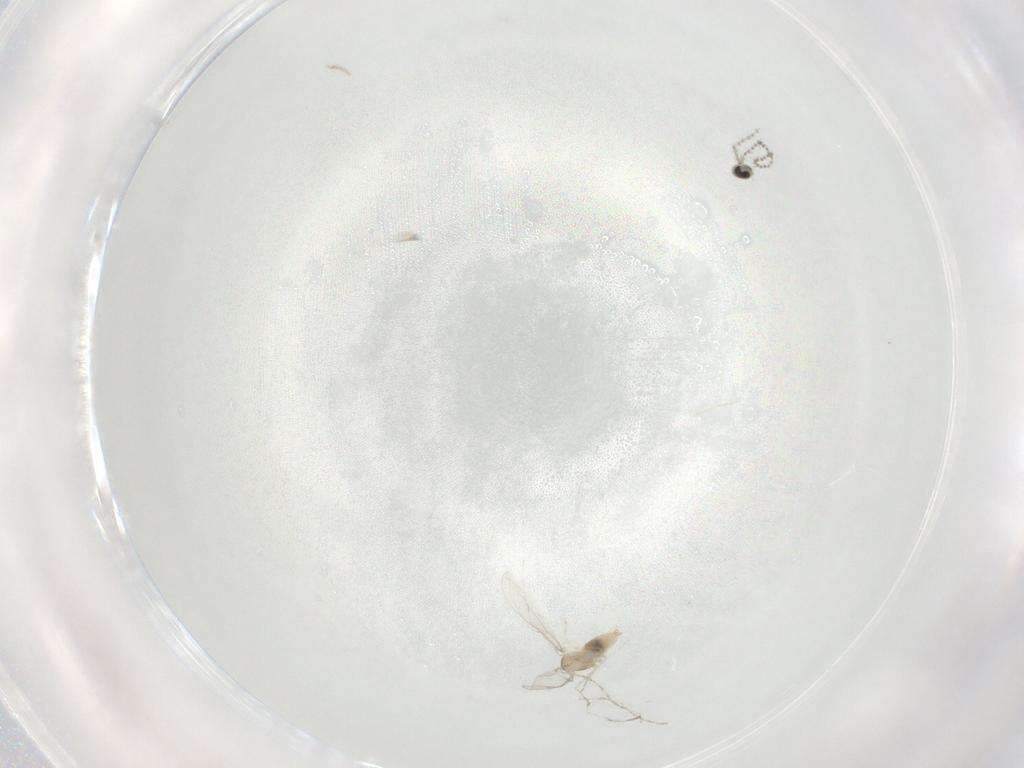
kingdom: Animalia
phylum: Arthropoda
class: Insecta
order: Diptera
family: Cecidomyiidae
